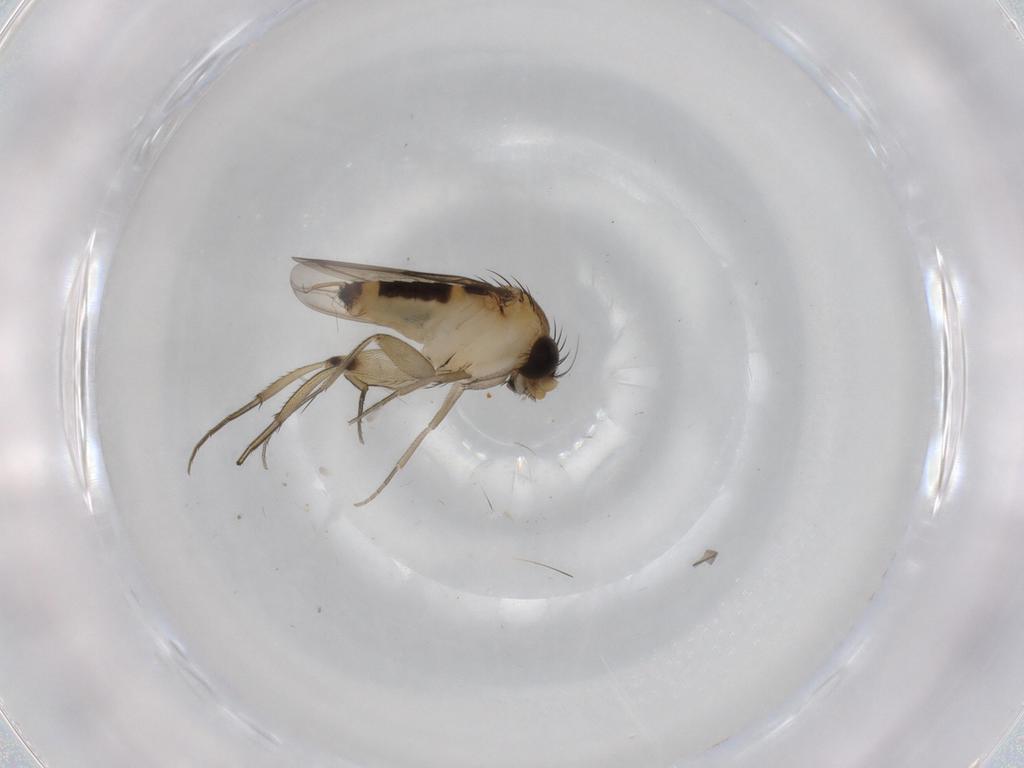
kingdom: Animalia
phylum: Arthropoda
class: Insecta
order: Diptera
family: Phoridae
